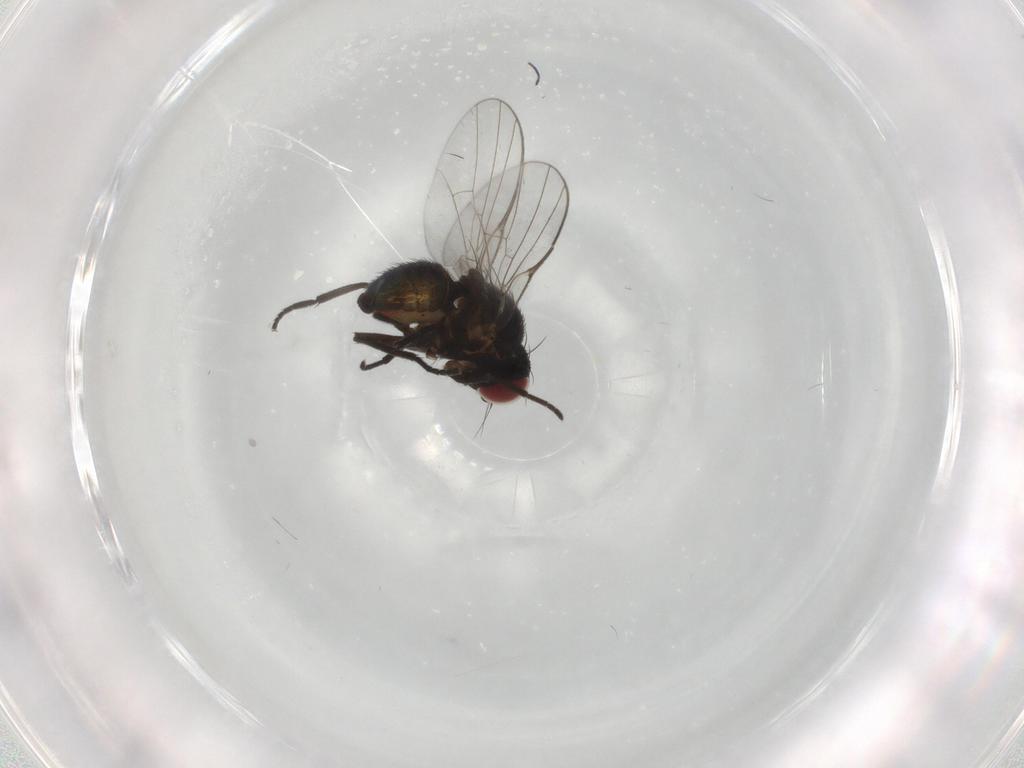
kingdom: Animalia
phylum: Arthropoda
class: Insecta
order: Diptera
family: Agromyzidae
